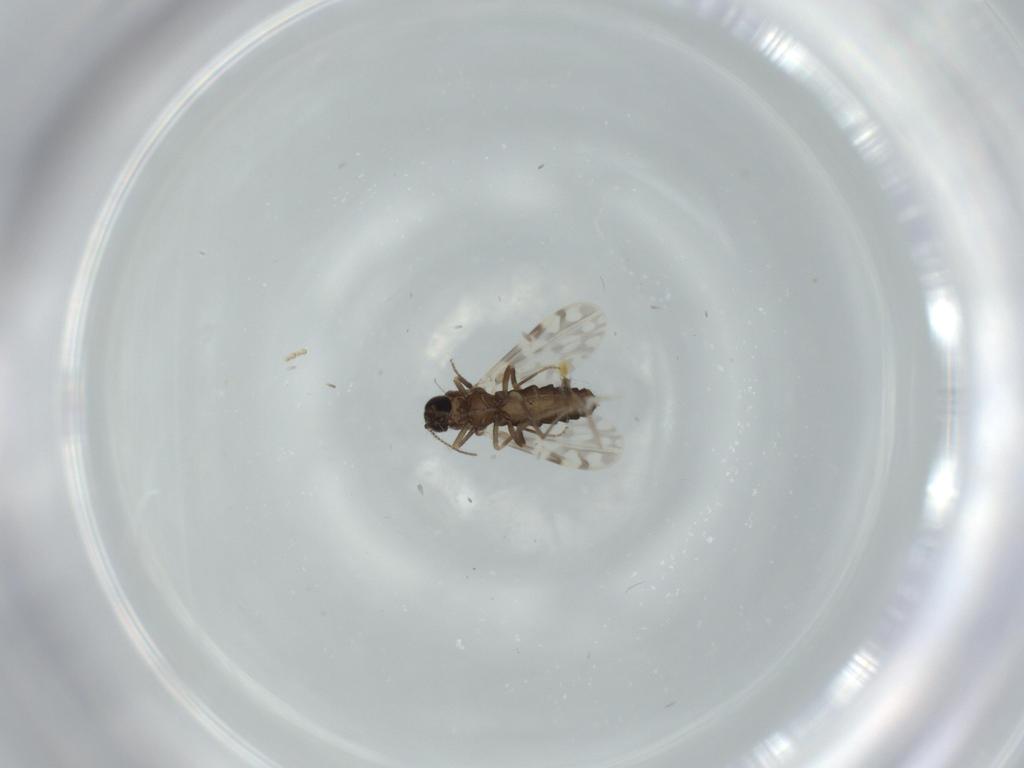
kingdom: Animalia
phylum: Arthropoda
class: Insecta
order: Diptera
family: Ceratopogonidae
